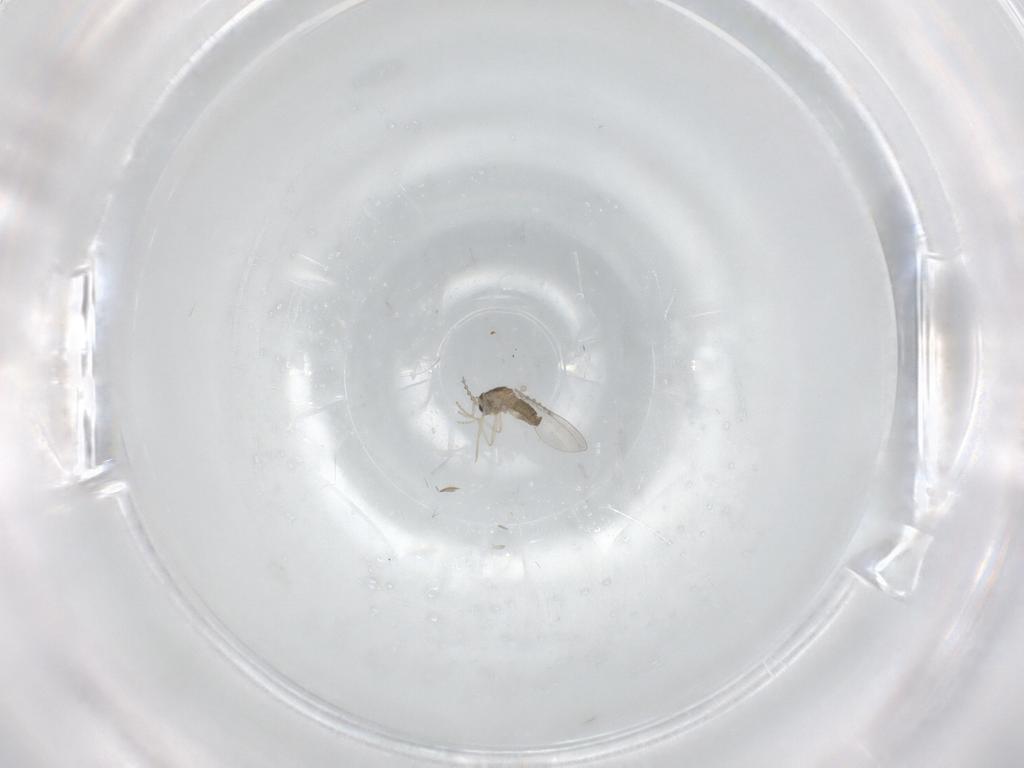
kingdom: Animalia
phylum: Arthropoda
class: Insecta
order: Diptera
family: Cecidomyiidae
